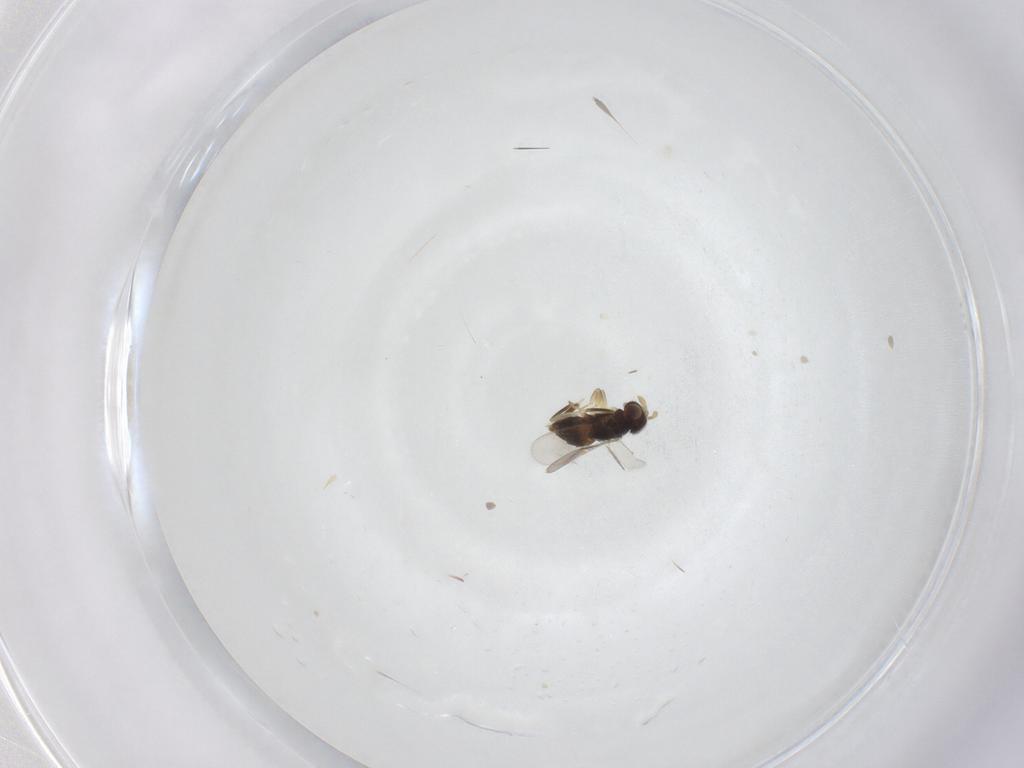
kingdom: Animalia
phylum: Arthropoda
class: Insecta
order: Hymenoptera
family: Aphelinidae
